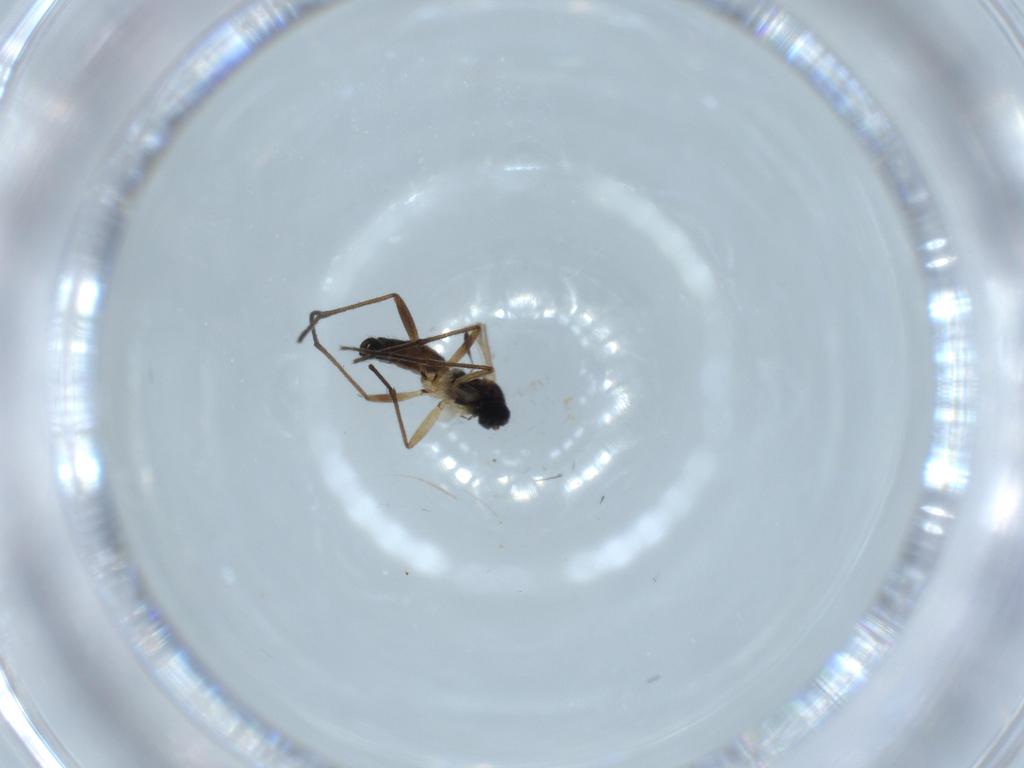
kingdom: Animalia
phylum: Arthropoda
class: Insecta
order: Diptera
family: Sciaridae
